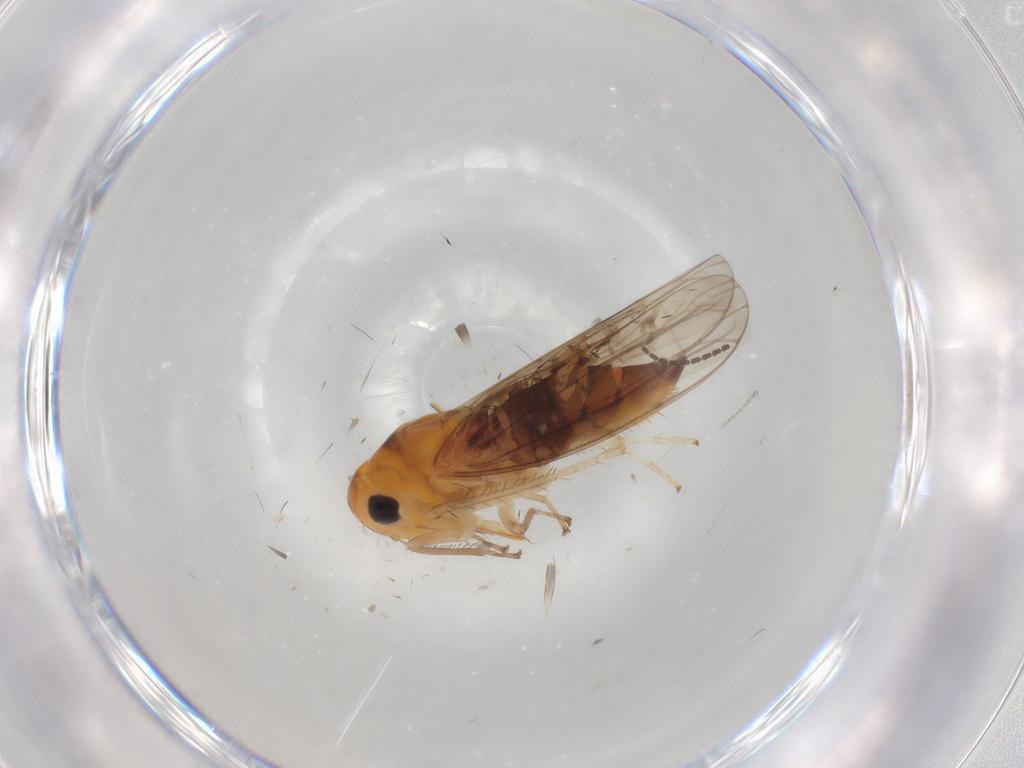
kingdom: Animalia
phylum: Arthropoda
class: Insecta
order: Hemiptera
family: Cicadellidae
